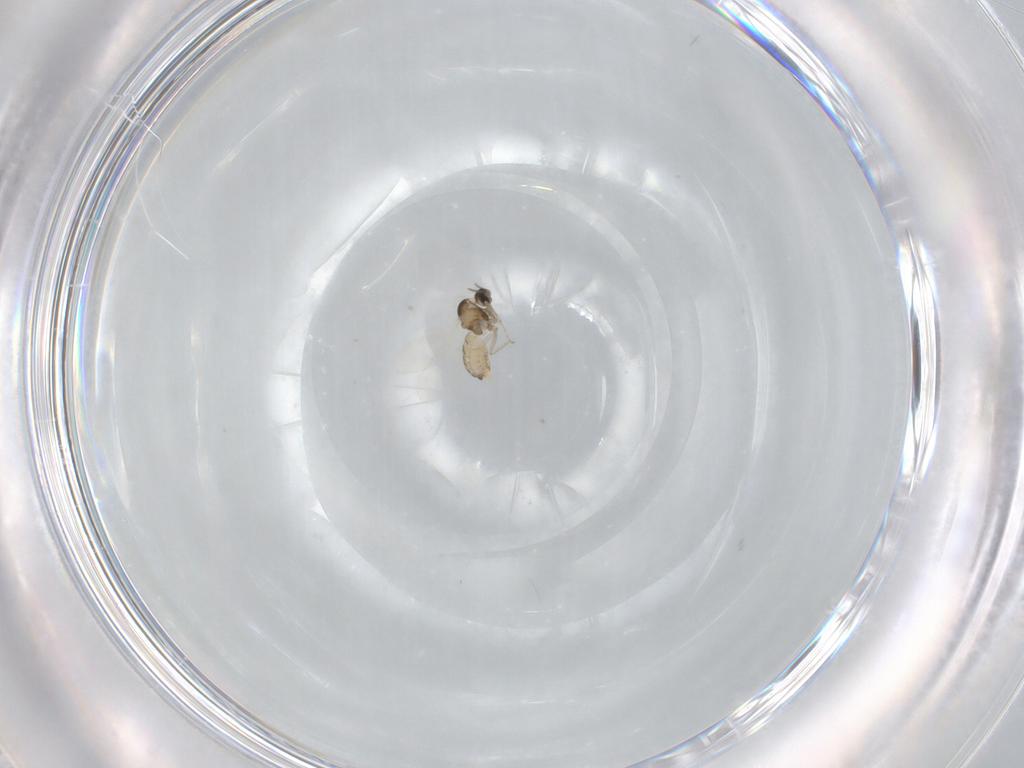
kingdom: Animalia
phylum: Arthropoda
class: Insecta
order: Diptera
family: Cecidomyiidae
